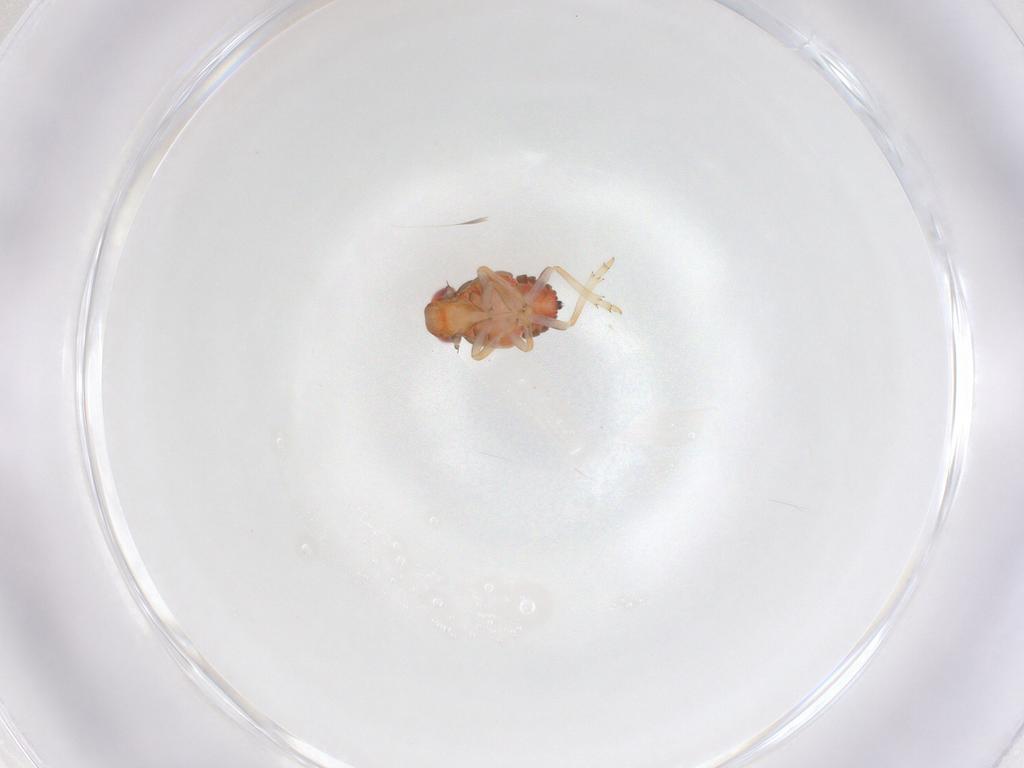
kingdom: Animalia
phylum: Arthropoda
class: Insecta
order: Hemiptera
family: Issidae
